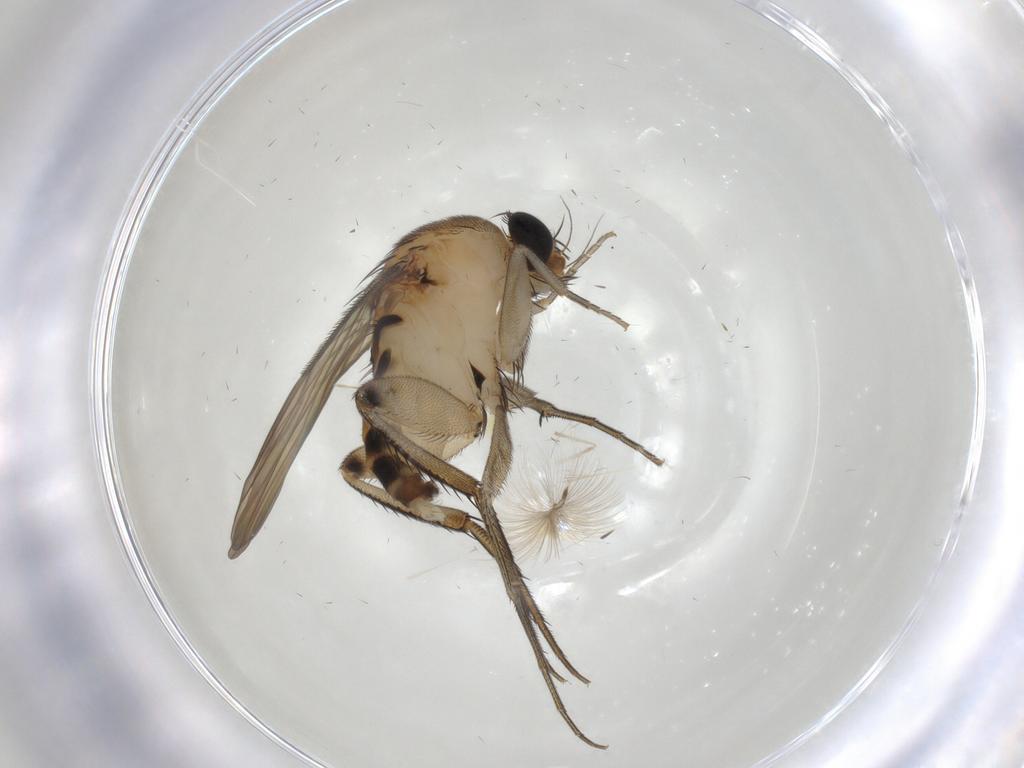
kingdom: Animalia
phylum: Arthropoda
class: Insecta
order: Diptera
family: Phoridae
